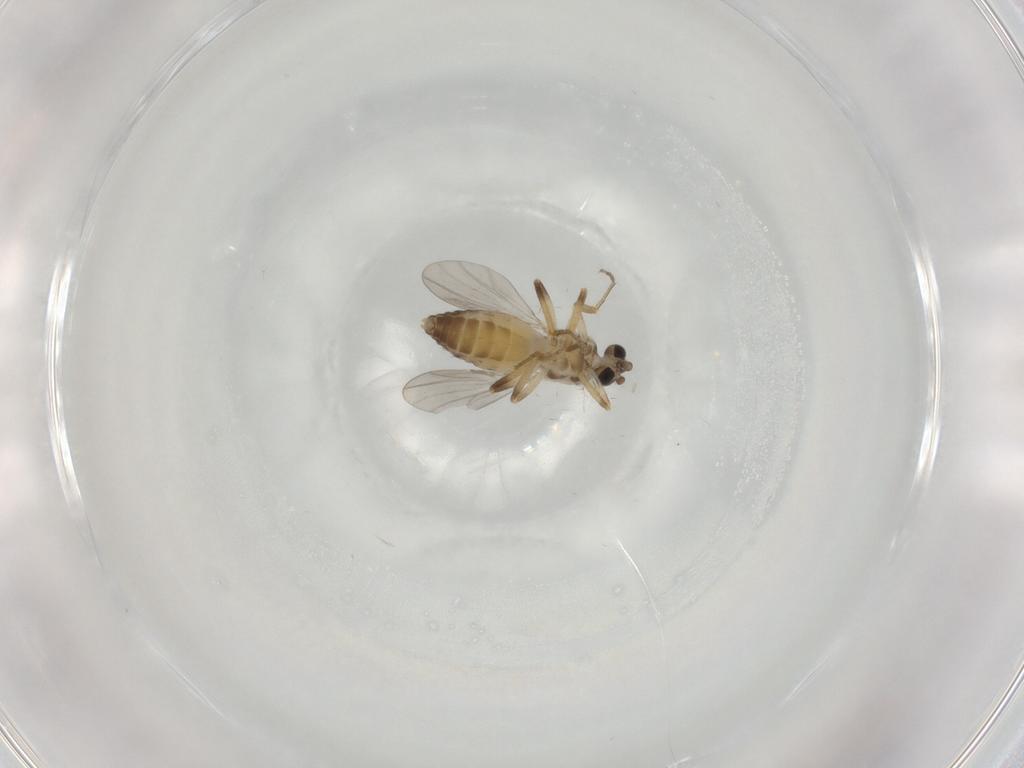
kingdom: Animalia
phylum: Arthropoda
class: Insecta
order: Diptera
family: Ceratopogonidae
